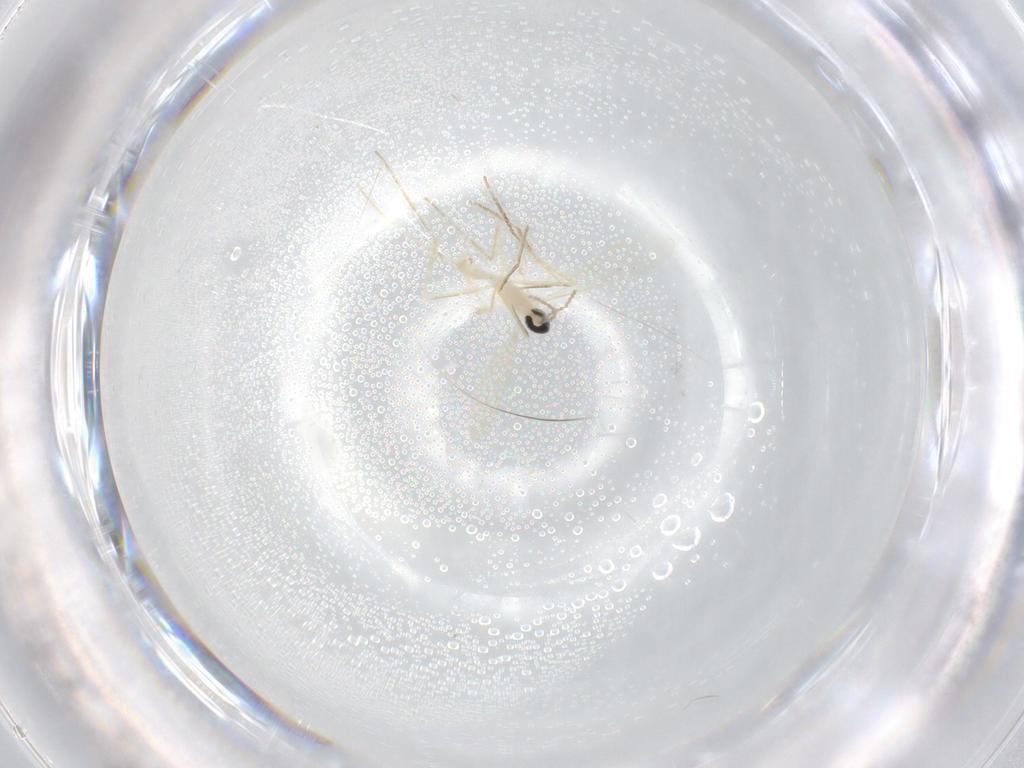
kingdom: Animalia
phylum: Arthropoda
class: Insecta
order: Diptera
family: Cecidomyiidae
